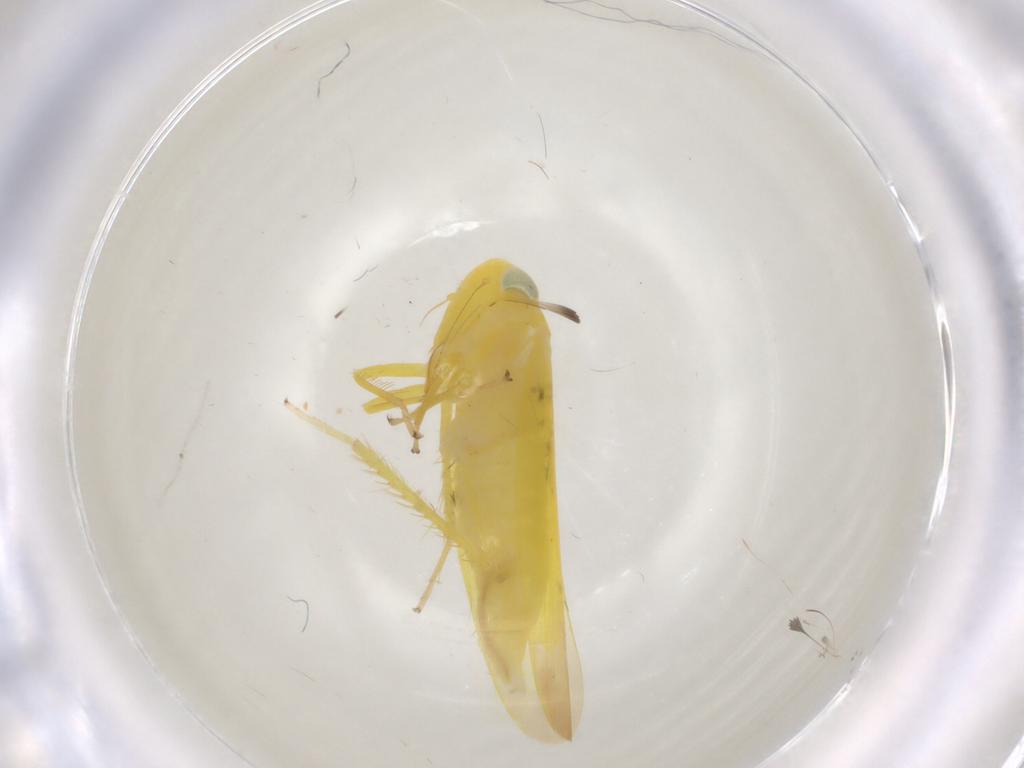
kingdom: Animalia
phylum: Arthropoda
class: Insecta
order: Hemiptera
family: Cicadellidae
